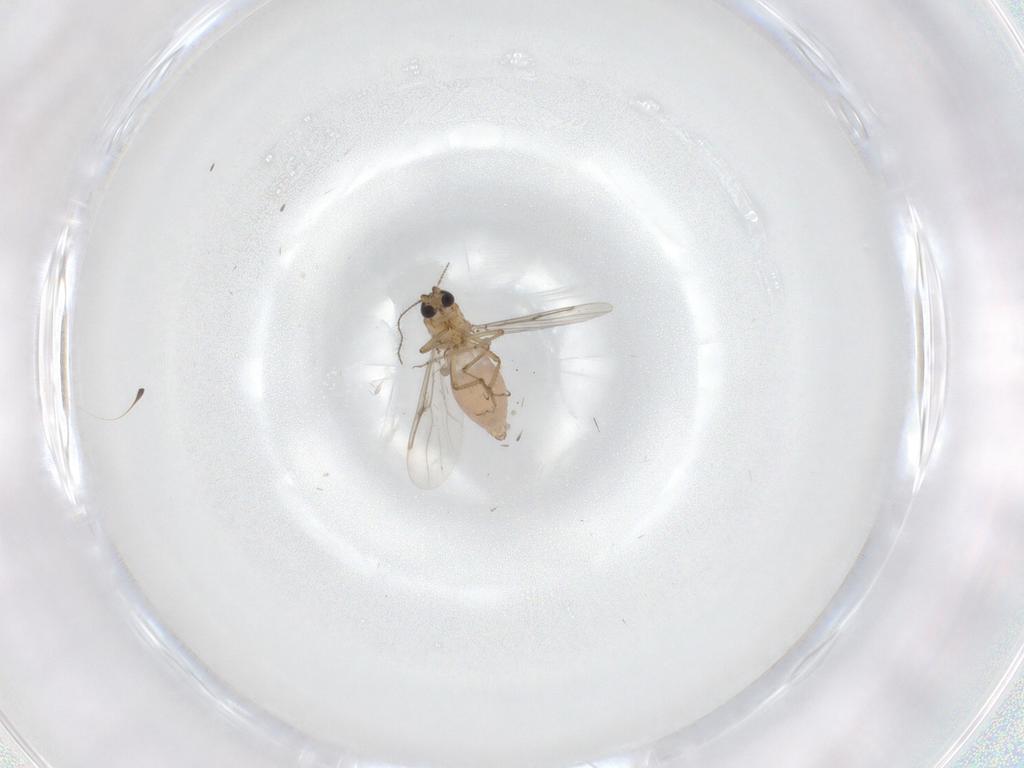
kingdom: Animalia
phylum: Arthropoda
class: Insecta
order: Diptera
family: Ceratopogonidae
